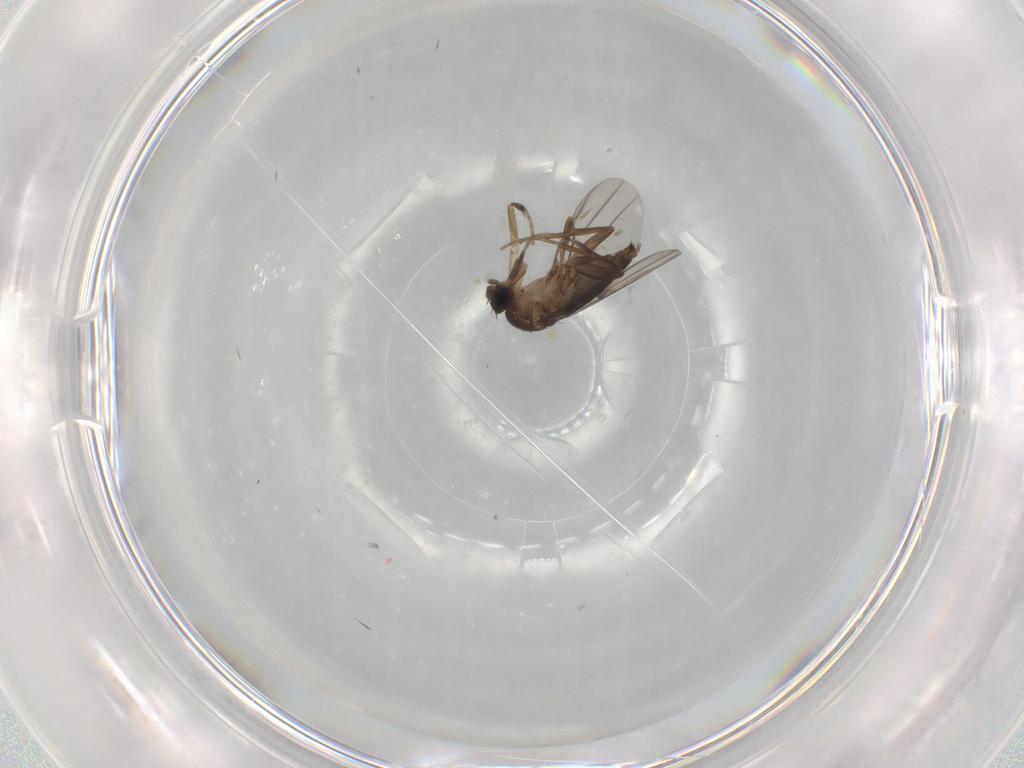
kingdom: Animalia
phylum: Arthropoda
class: Insecta
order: Diptera
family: Phoridae
